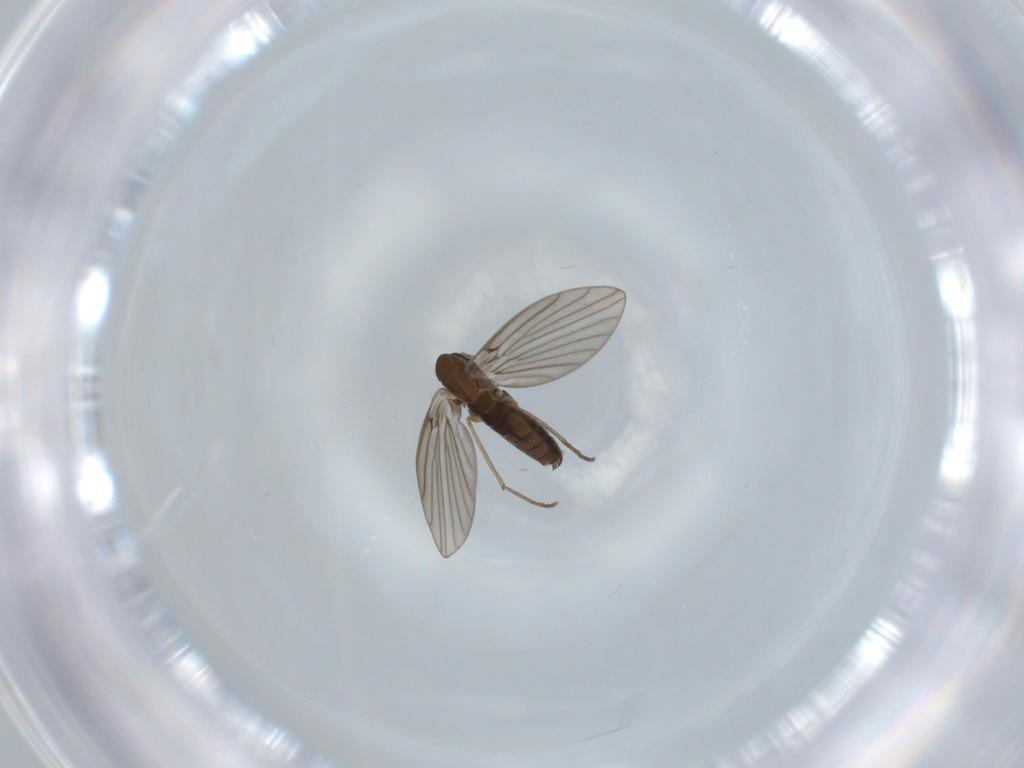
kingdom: Animalia
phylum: Arthropoda
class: Insecta
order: Diptera
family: Psychodidae
